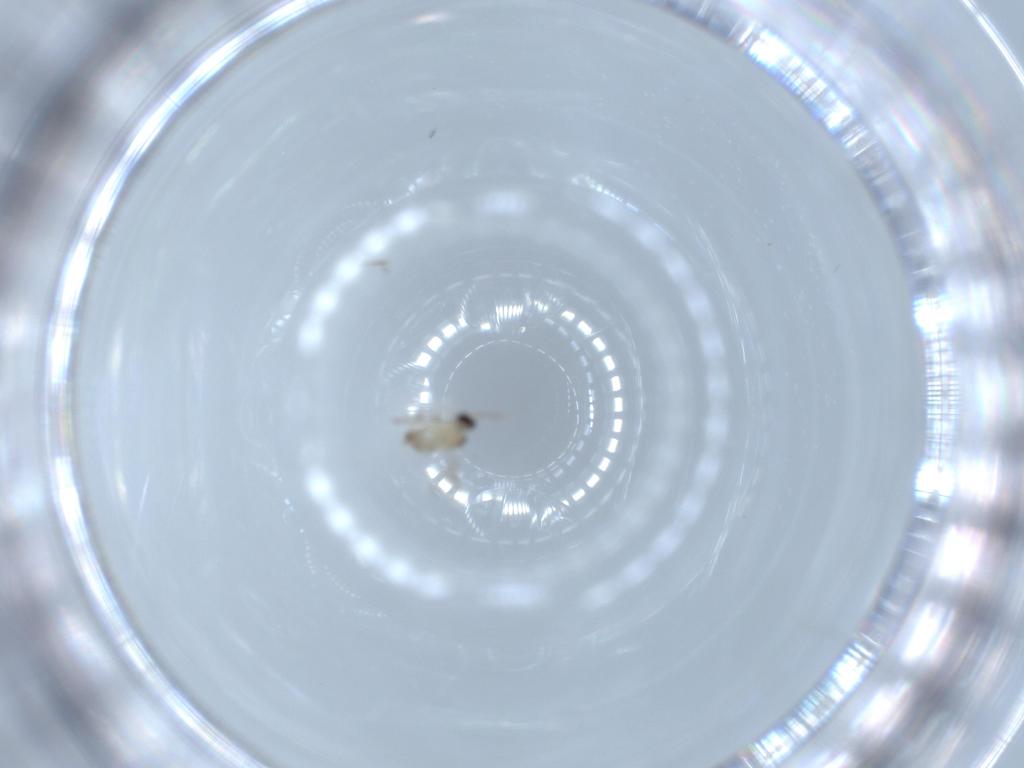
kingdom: Animalia
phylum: Arthropoda
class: Insecta
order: Diptera
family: Cecidomyiidae
